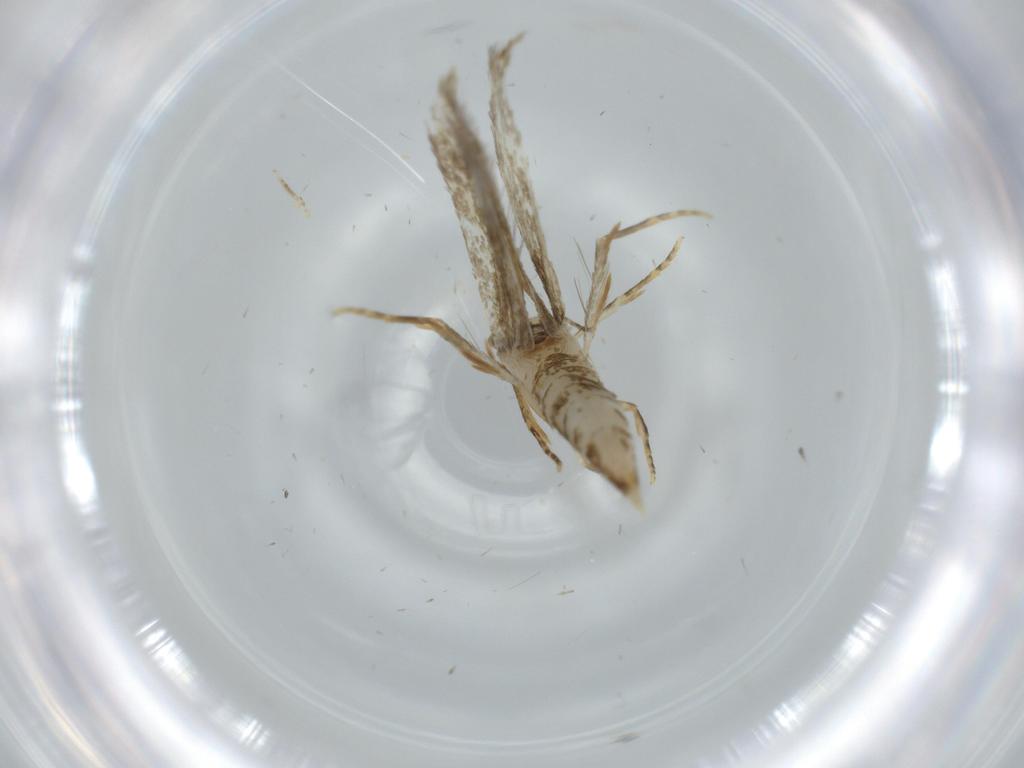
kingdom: Animalia
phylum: Arthropoda
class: Insecta
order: Lepidoptera
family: Tineidae
